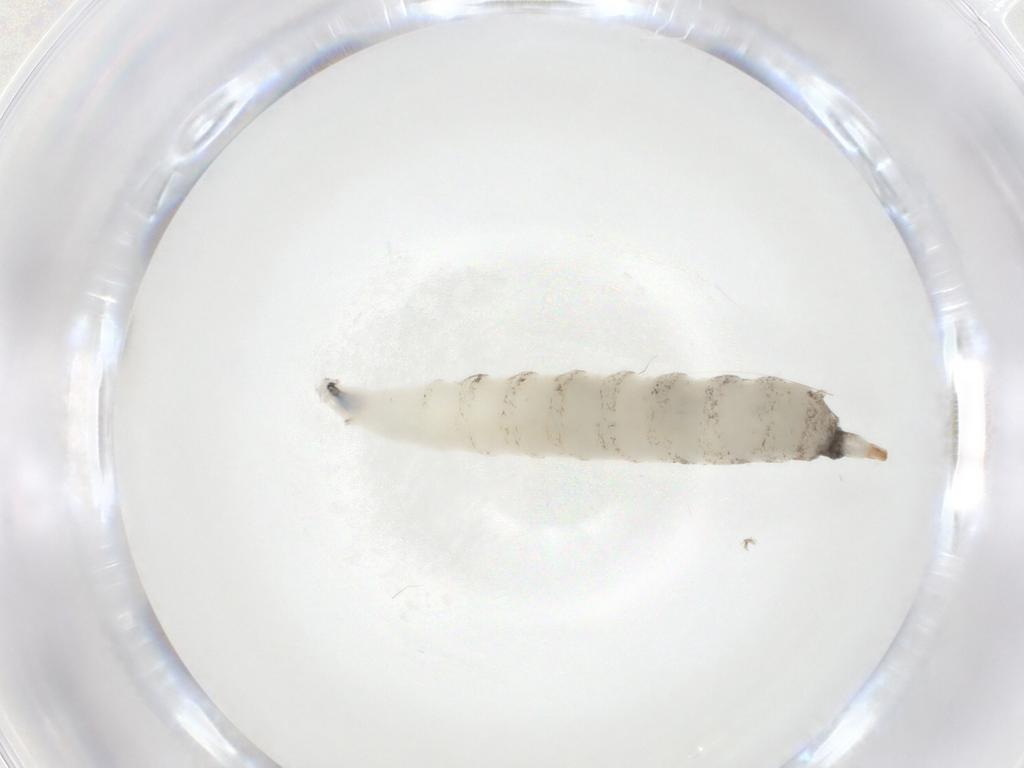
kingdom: Animalia
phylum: Arthropoda
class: Insecta
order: Diptera
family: Drosophilidae
